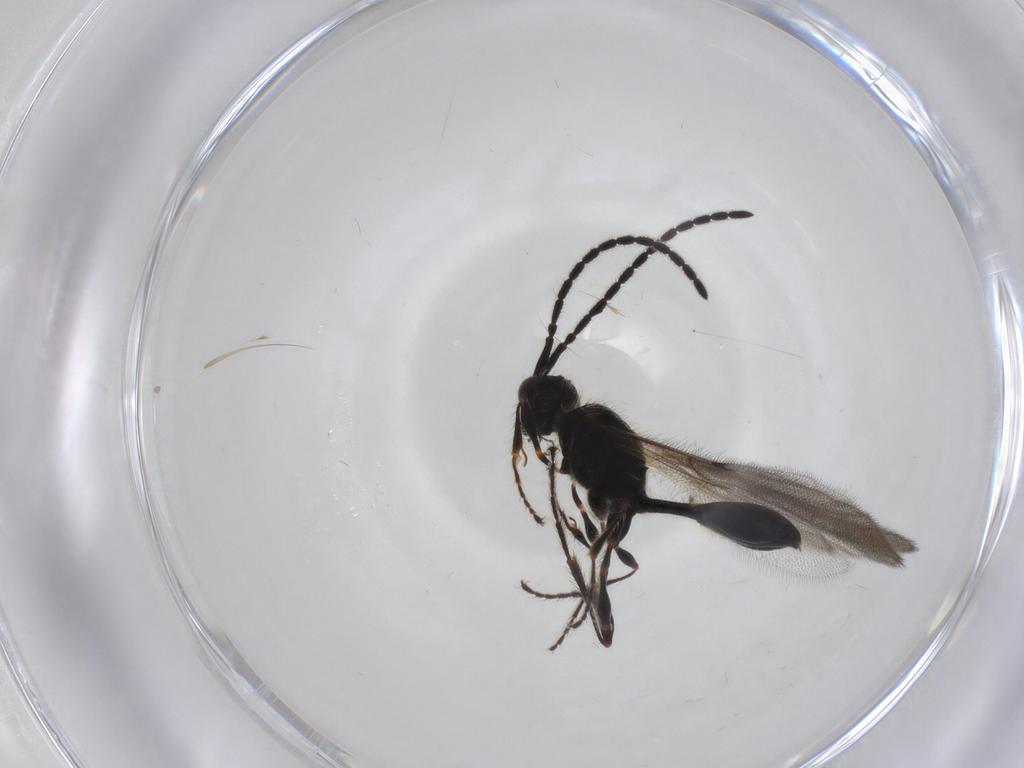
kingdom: Animalia
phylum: Arthropoda
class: Insecta
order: Hymenoptera
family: Diapriidae
